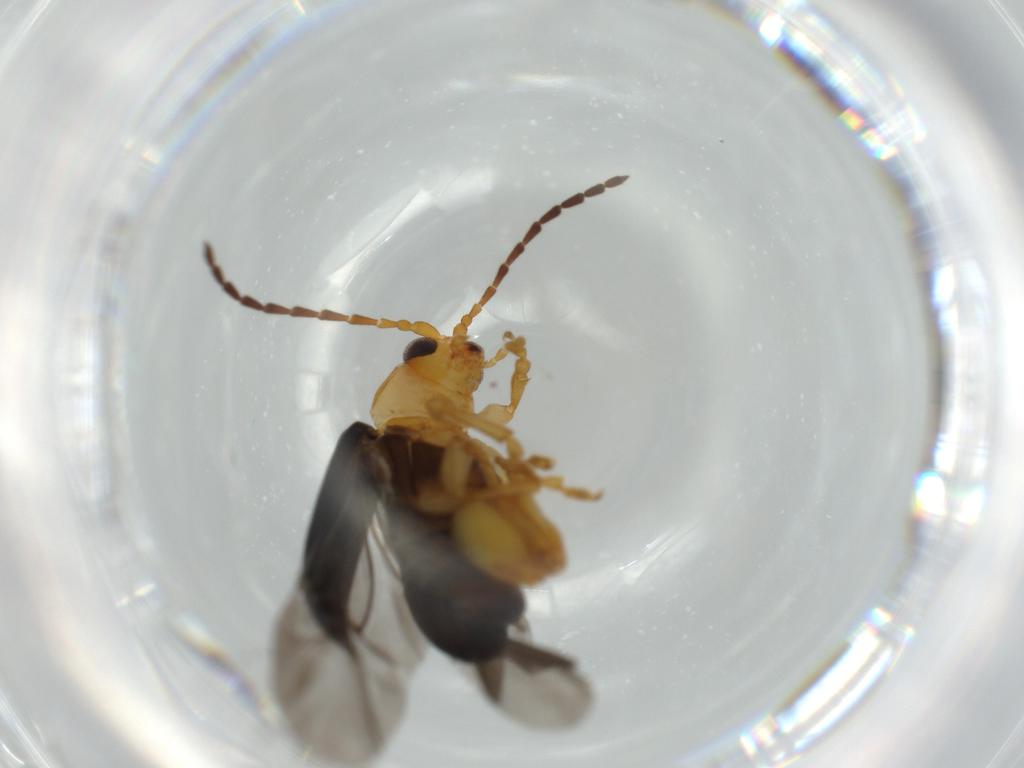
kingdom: Animalia
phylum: Arthropoda
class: Insecta
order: Coleoptera
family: Chrysomelidae
